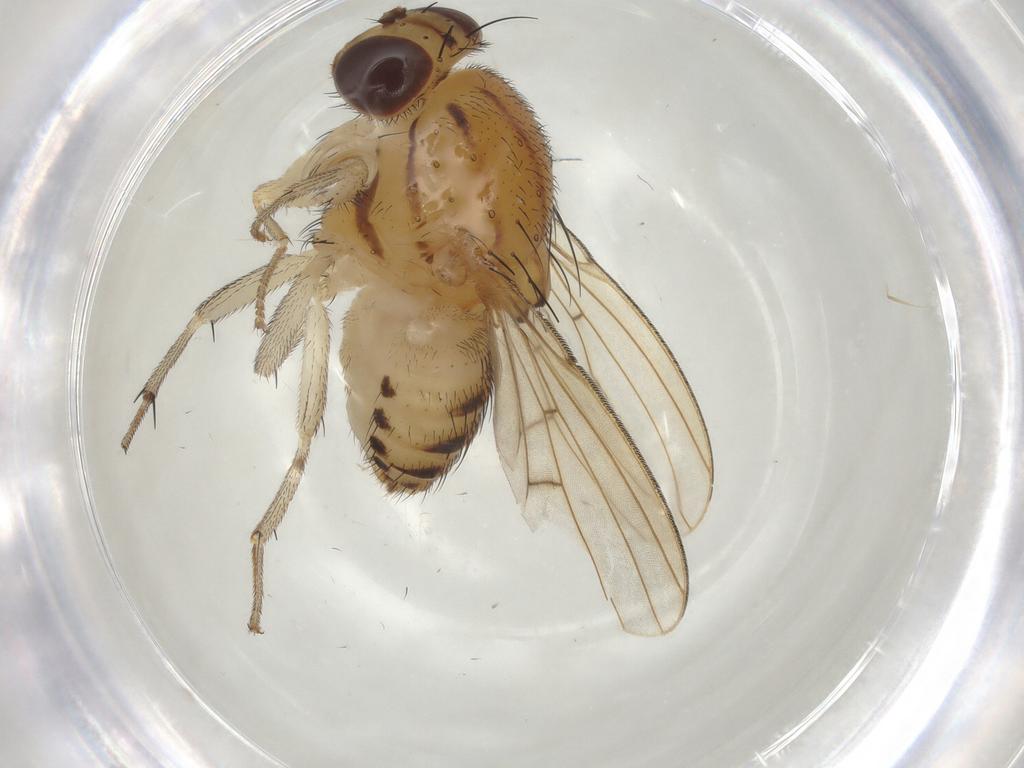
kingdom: Animalia
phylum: Arthropoda
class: Insecta
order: Diptera
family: Lauxaniidae
